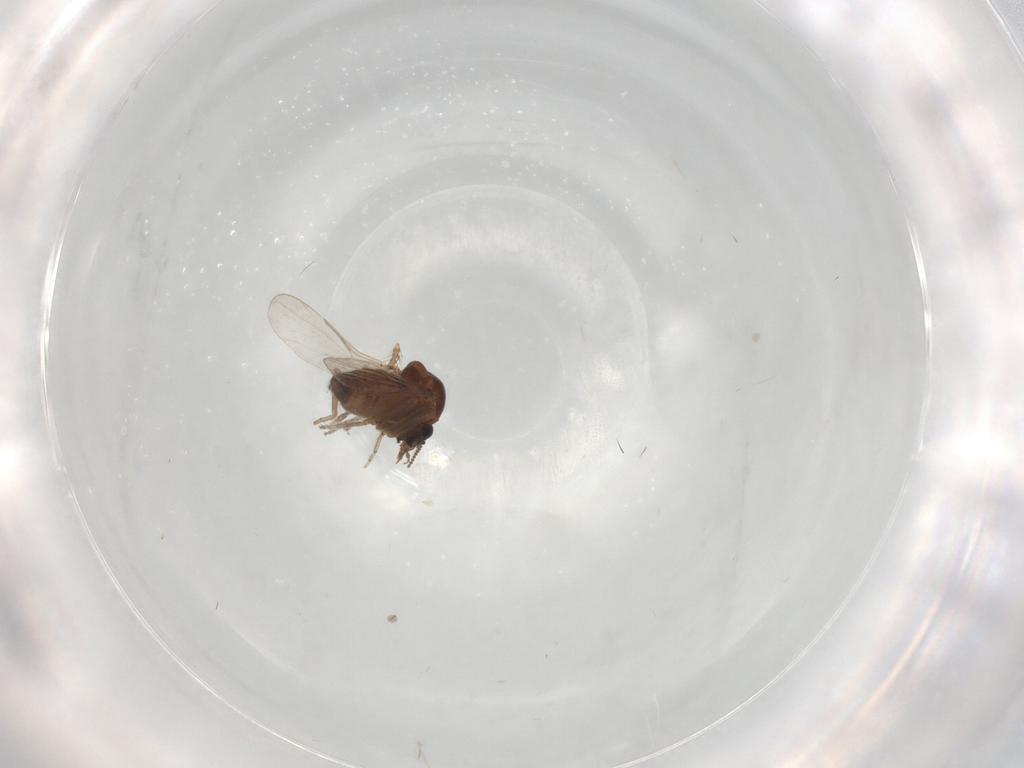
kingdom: Animalia
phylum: Arthropoda
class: Insecta
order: Diptera
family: Ceratopogonidae
